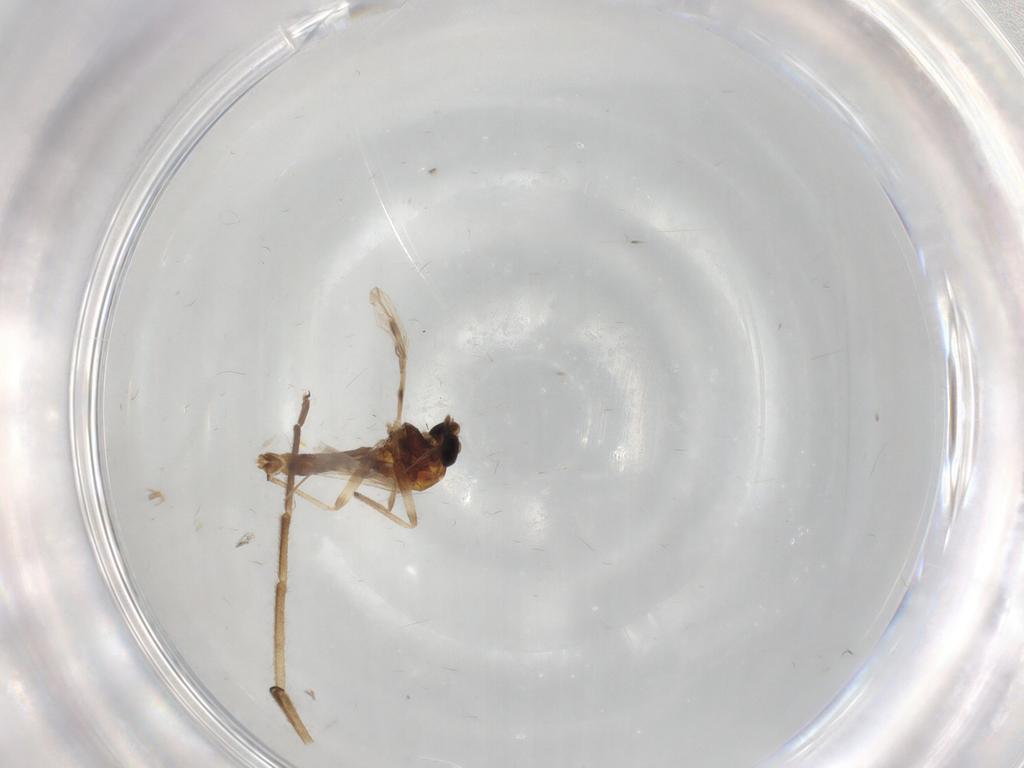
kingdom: Animalia
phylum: Arthropoda
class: Insecta
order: Diptera
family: Chironomidae
